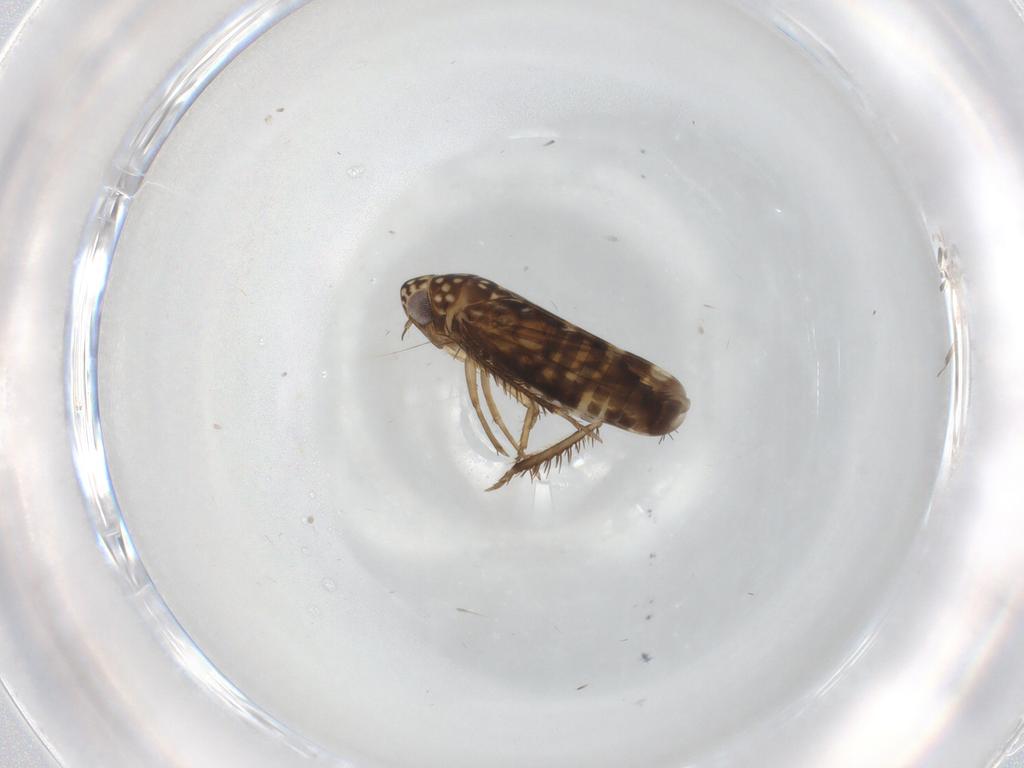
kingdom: Animalia
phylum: Arthropoda
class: Insecta
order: Hemiptera
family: Cicadellidae
